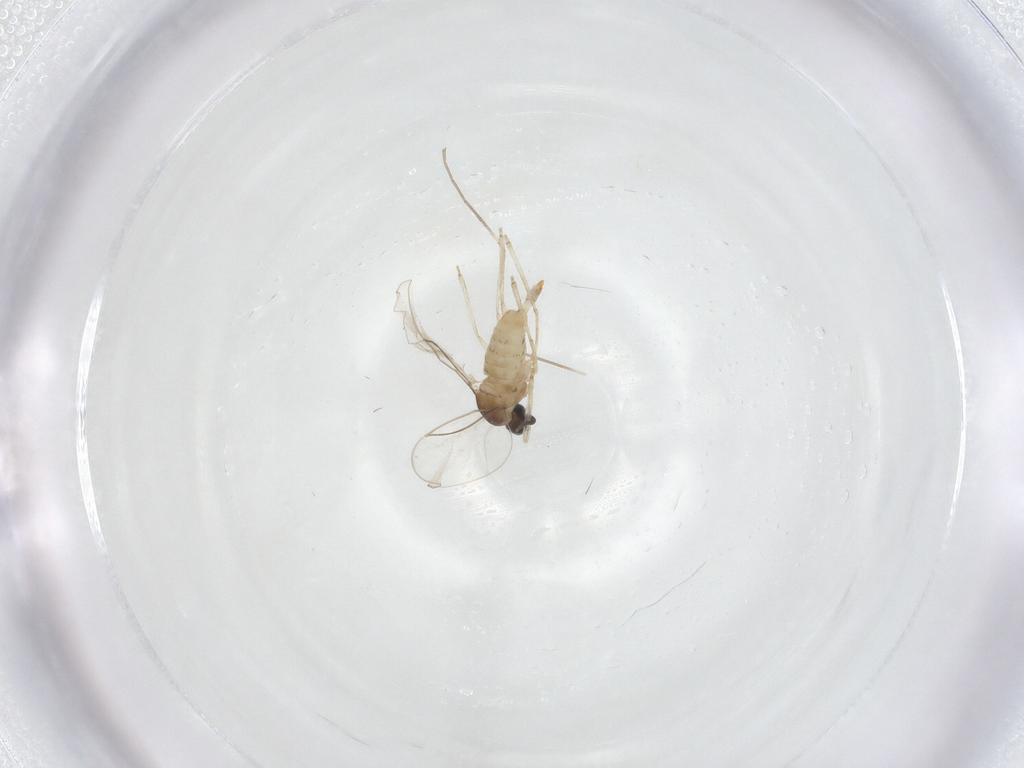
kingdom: Animalia
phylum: Arthropoda
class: Insecta
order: Diptera
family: Cecidomyiidae
